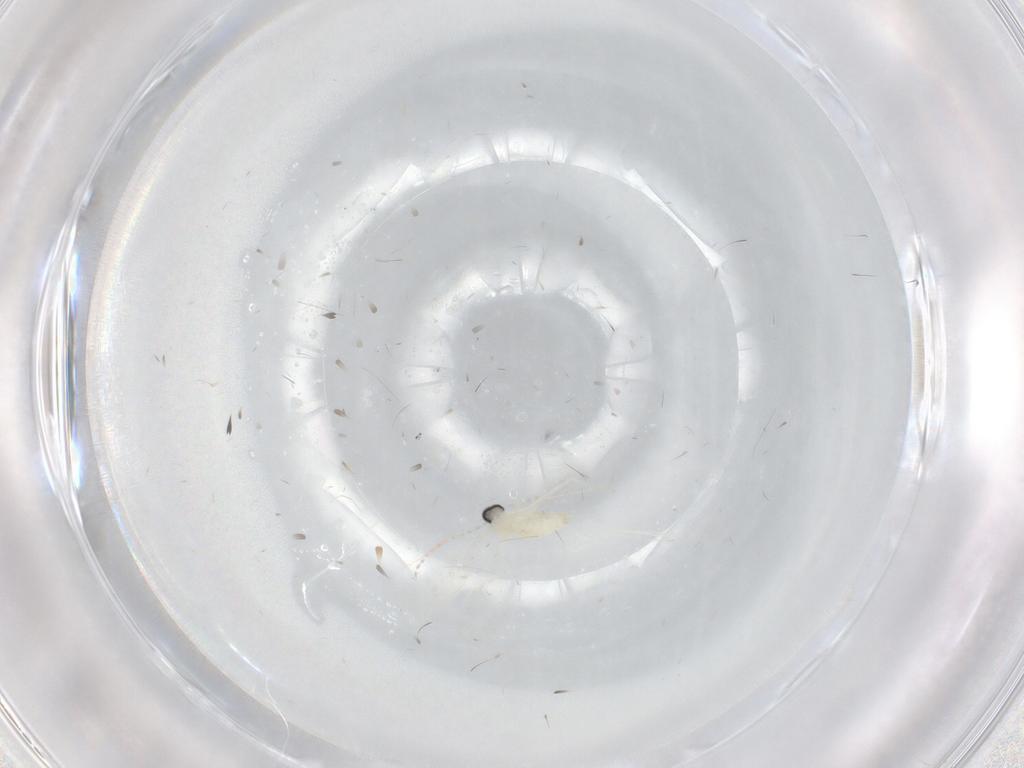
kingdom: Animalia
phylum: Arthropoda
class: Insecta
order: Diptera
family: Cecidomyiidae
